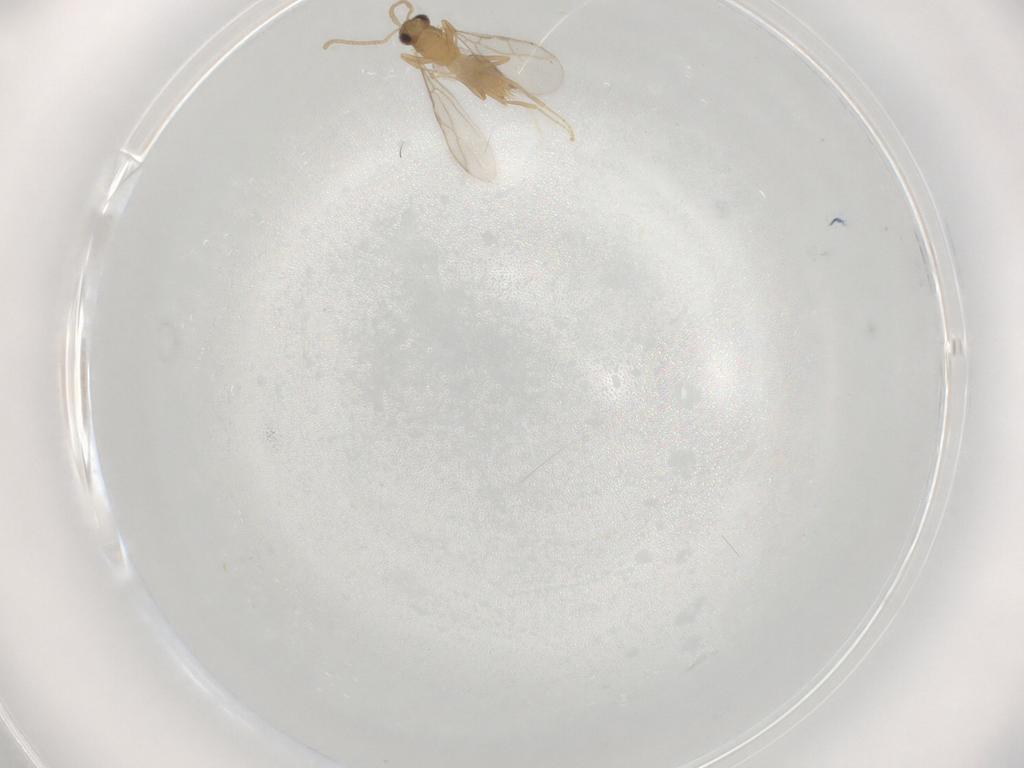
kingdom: Animalia
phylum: Arthropoda
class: Insecta
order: Hymenoptera
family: Formicidae
